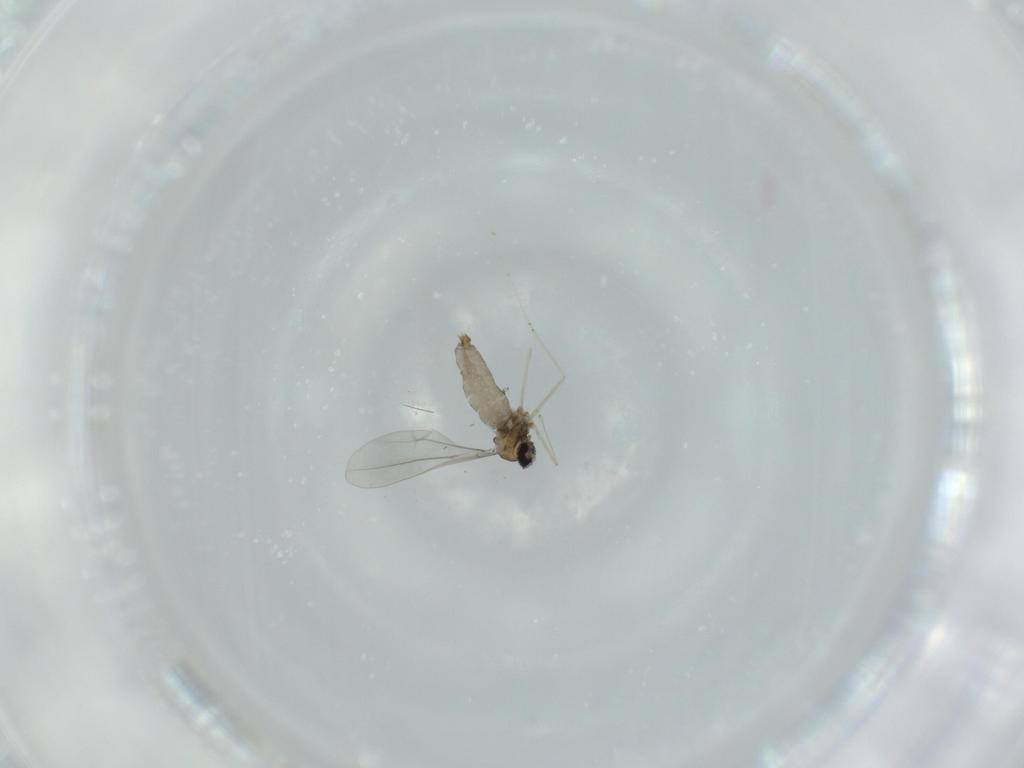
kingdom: Animalia
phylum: Arthropoda
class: Insecta
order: Diptera
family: Cecidomyiidae
